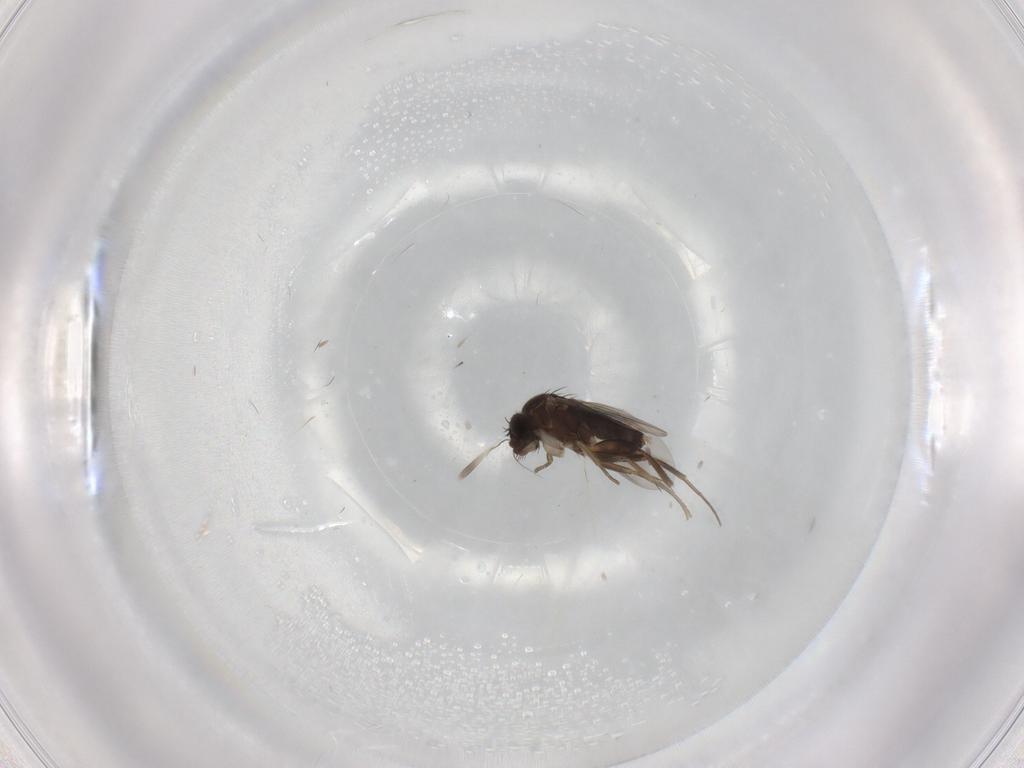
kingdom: Animalia
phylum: Arthropoda
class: Insecta
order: Diptera
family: Phoridae
